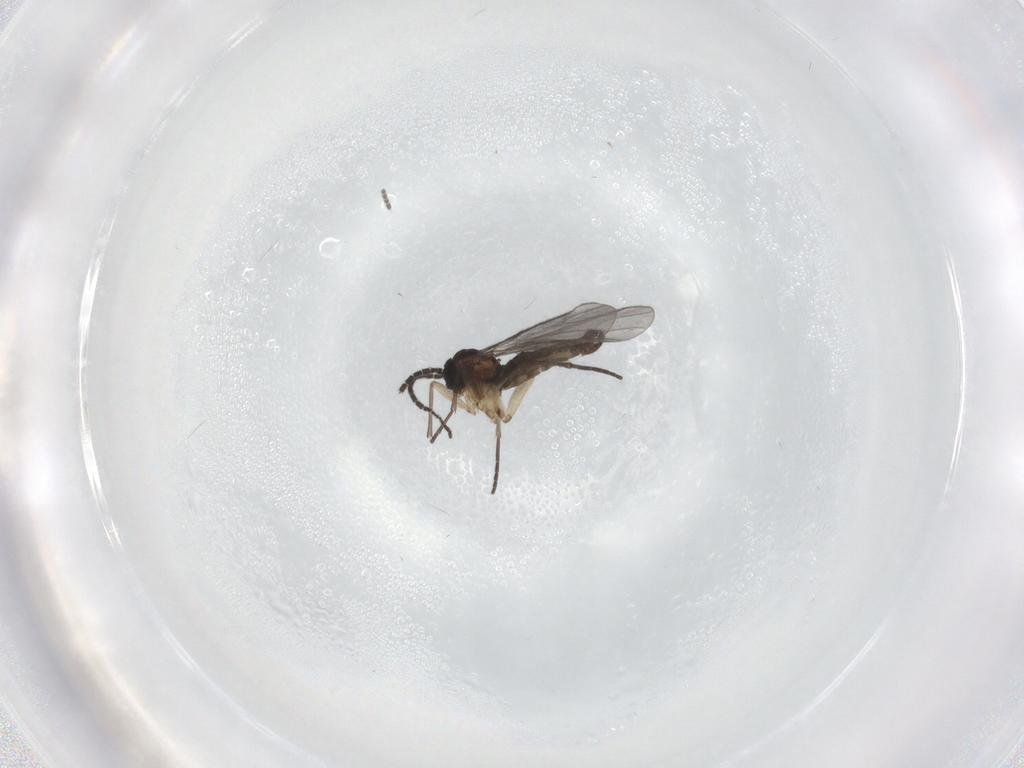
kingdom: Animalia
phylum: Arthropoda
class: Insecta
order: Diptera
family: Sciaridae
